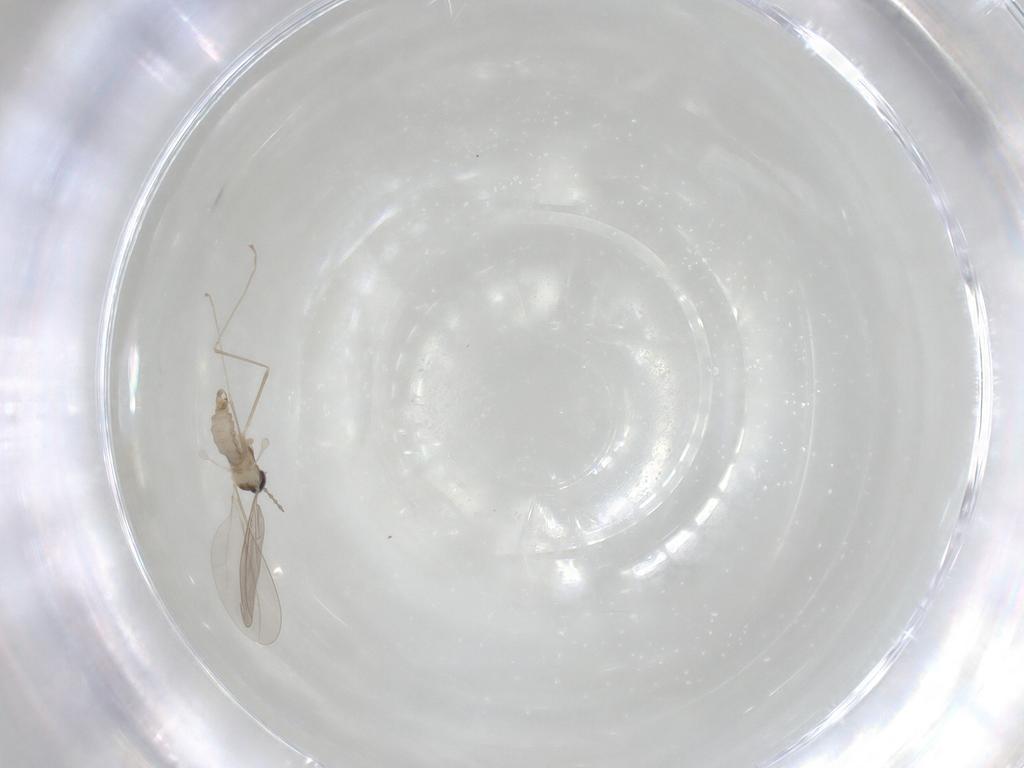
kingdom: Animalia
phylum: Arthropoda
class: Insecta
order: Diptera
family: Cecidomyiidae
